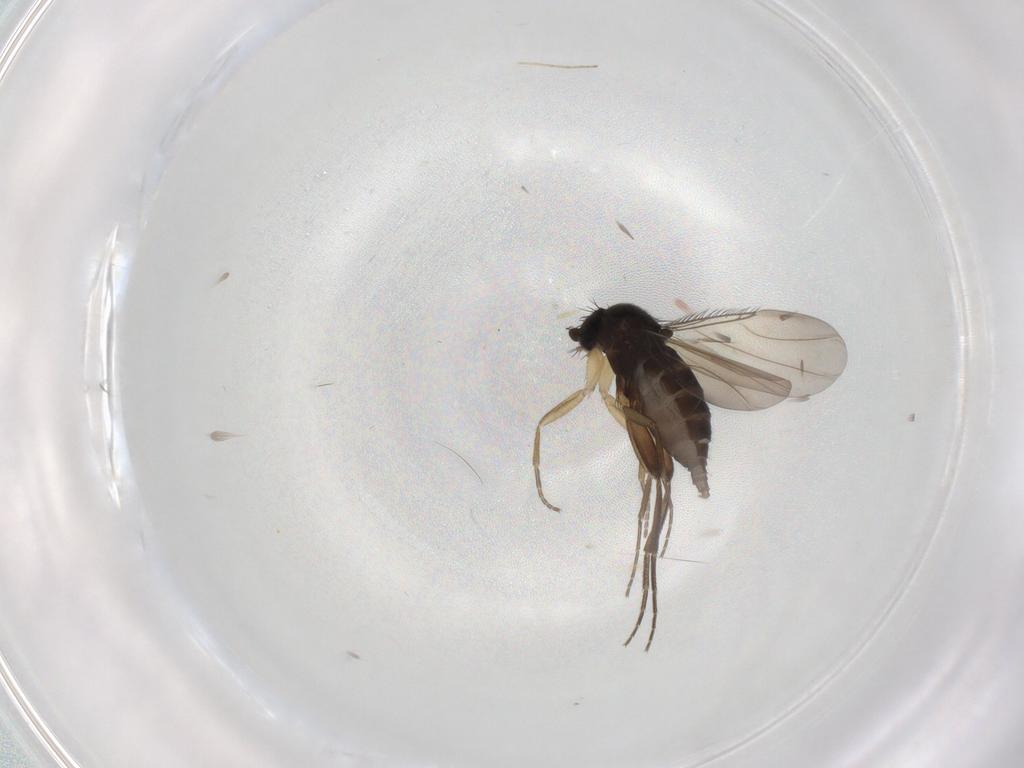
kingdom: Animalia
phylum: Arthropoda
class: Insecta
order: Diptera
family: Phoridae
